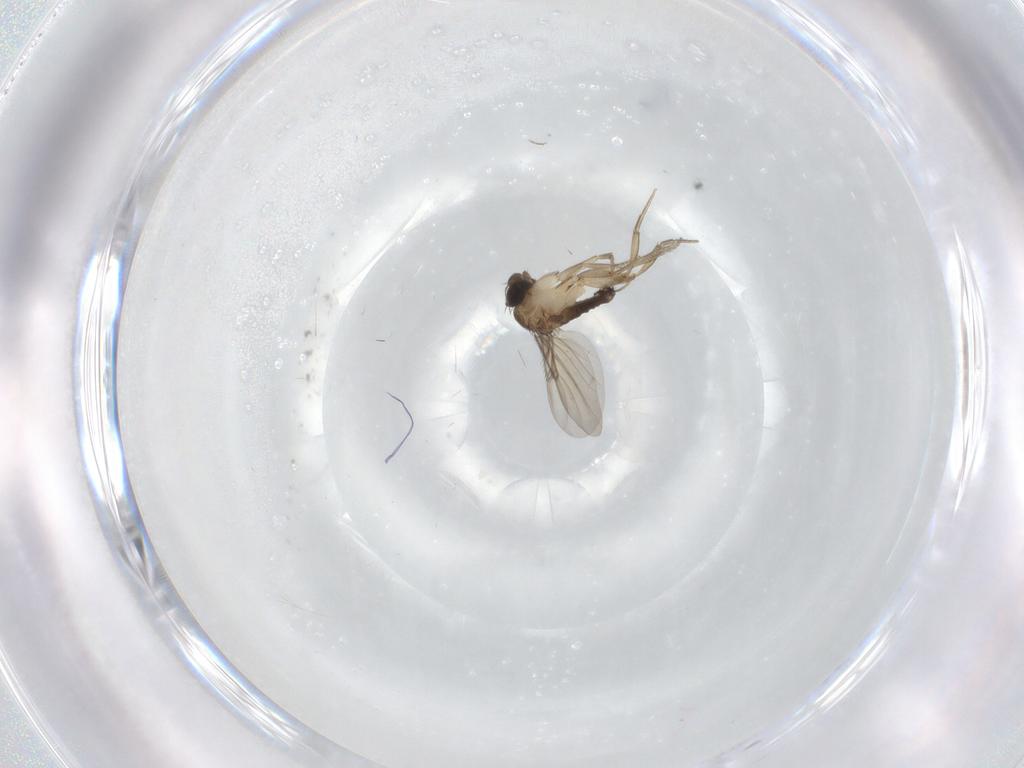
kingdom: Animalia
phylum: Arthropoda
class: Insecta
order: Diptera
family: Phoridae
